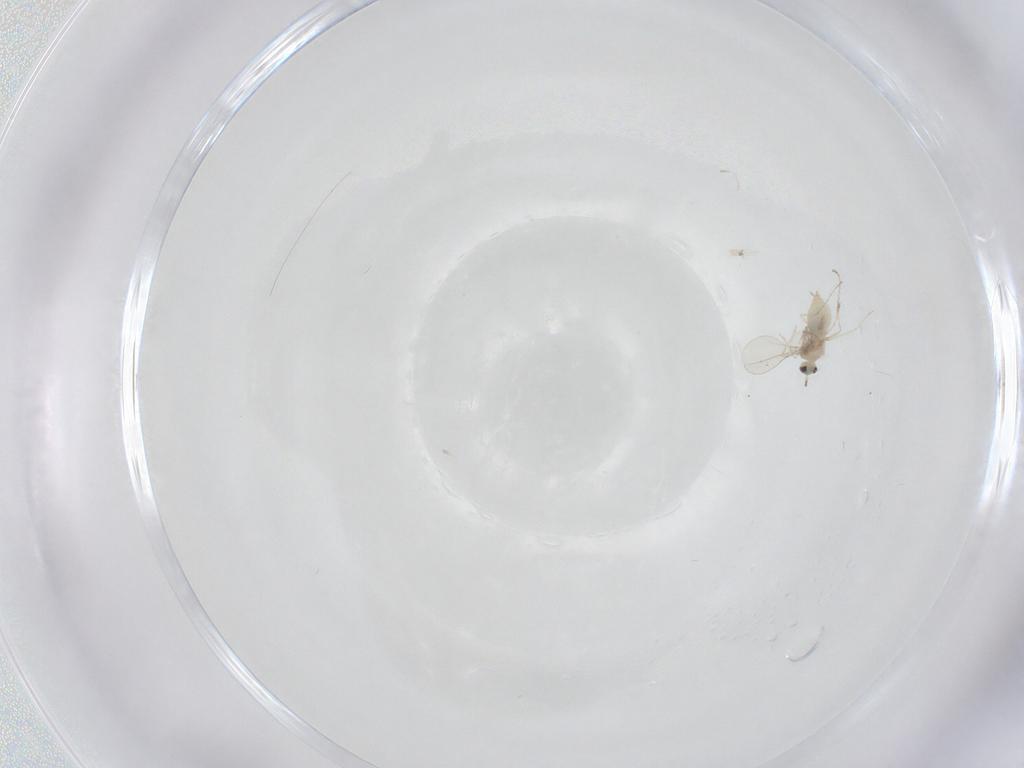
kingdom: Animalia
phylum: Arthropoda
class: Insecta
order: Diptera
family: Cecidomyiidae
